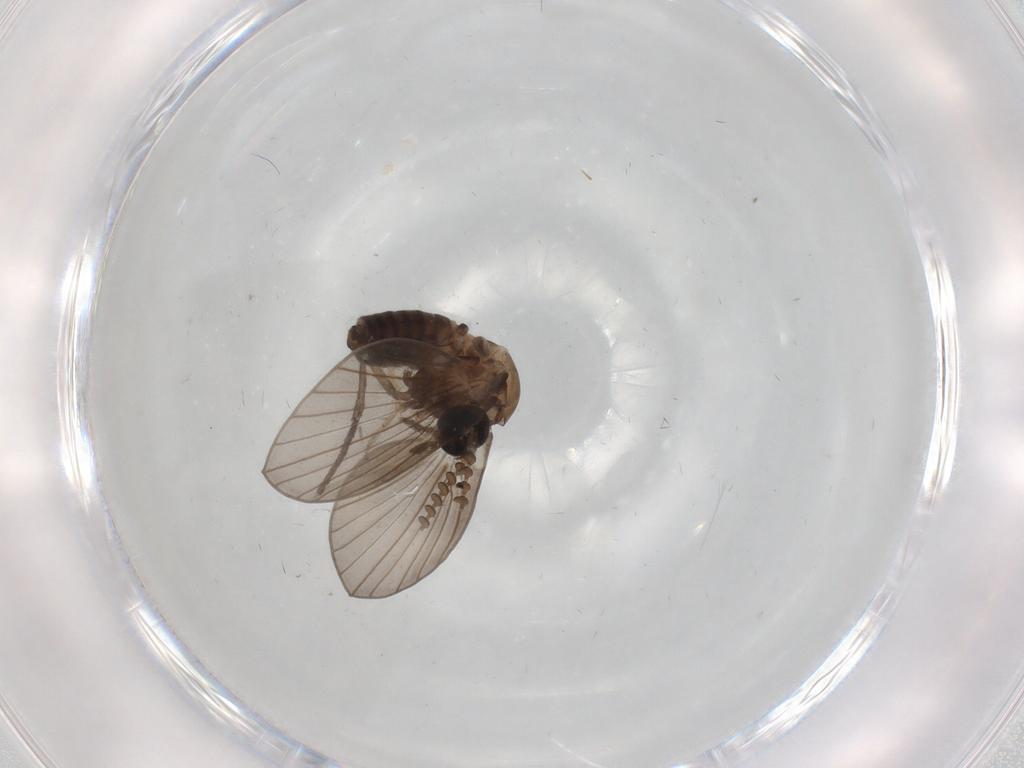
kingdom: Animalia
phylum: Arthropoda
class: Insecta
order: Diptera
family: Psychodidae
